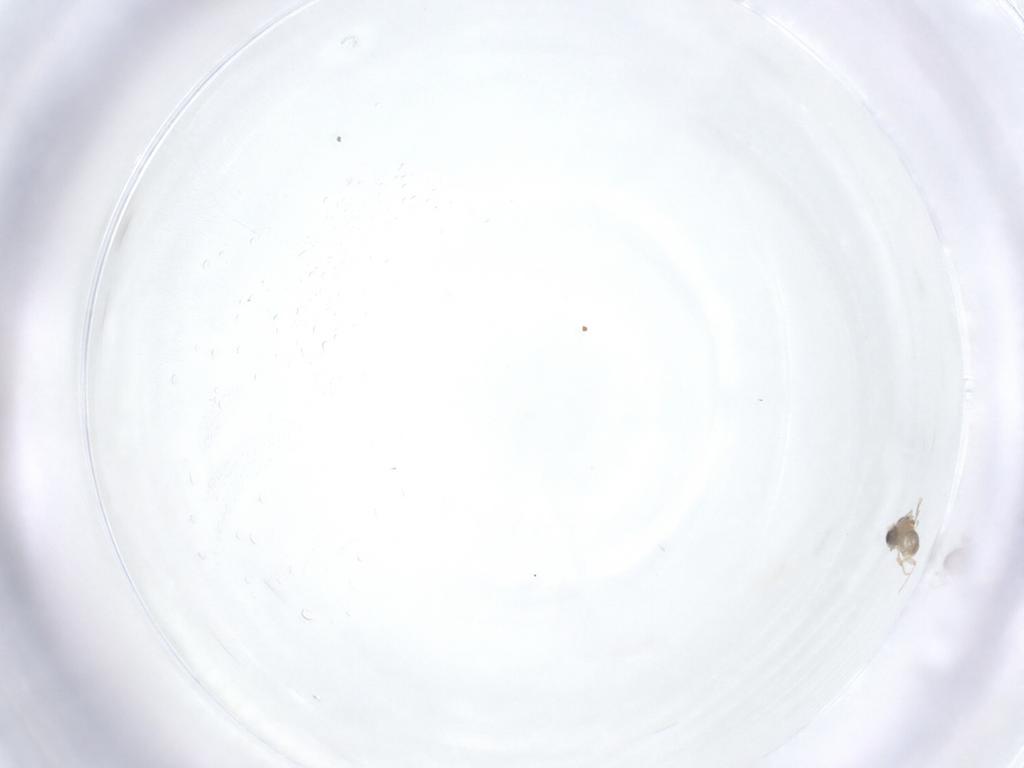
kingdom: Animalia
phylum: Arthropoda
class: Insecta
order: Diptera
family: Cecidomyiidae
